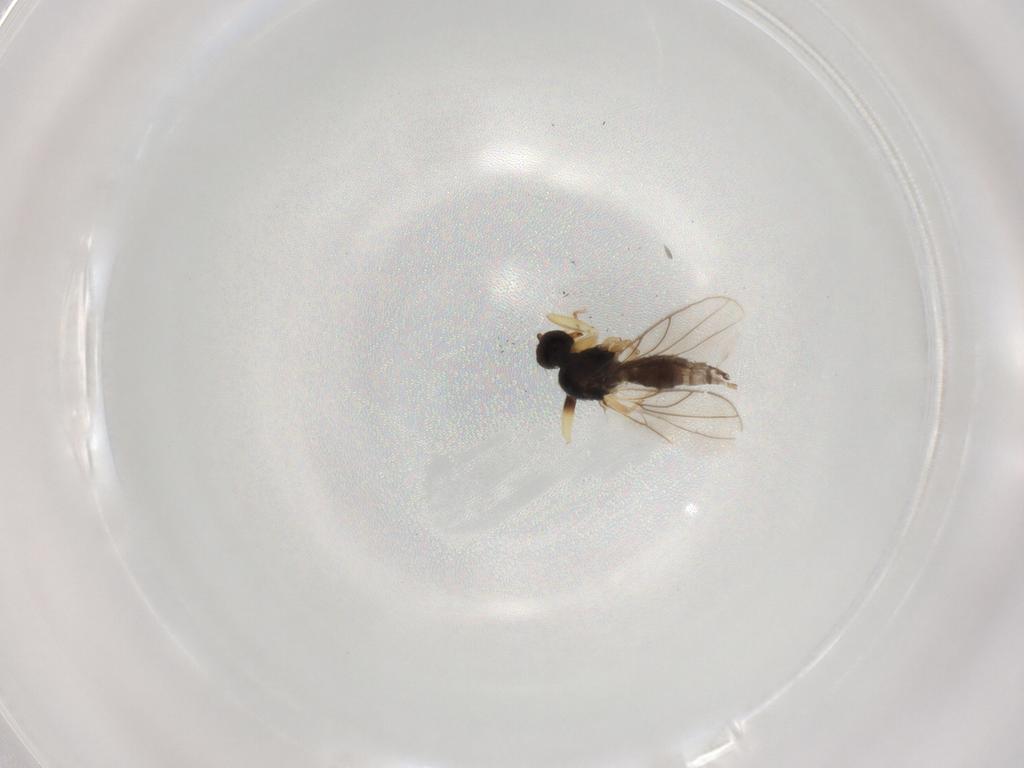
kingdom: Animalia
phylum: Arthropoda
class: Insecta
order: Diptera
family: Hybotidae
